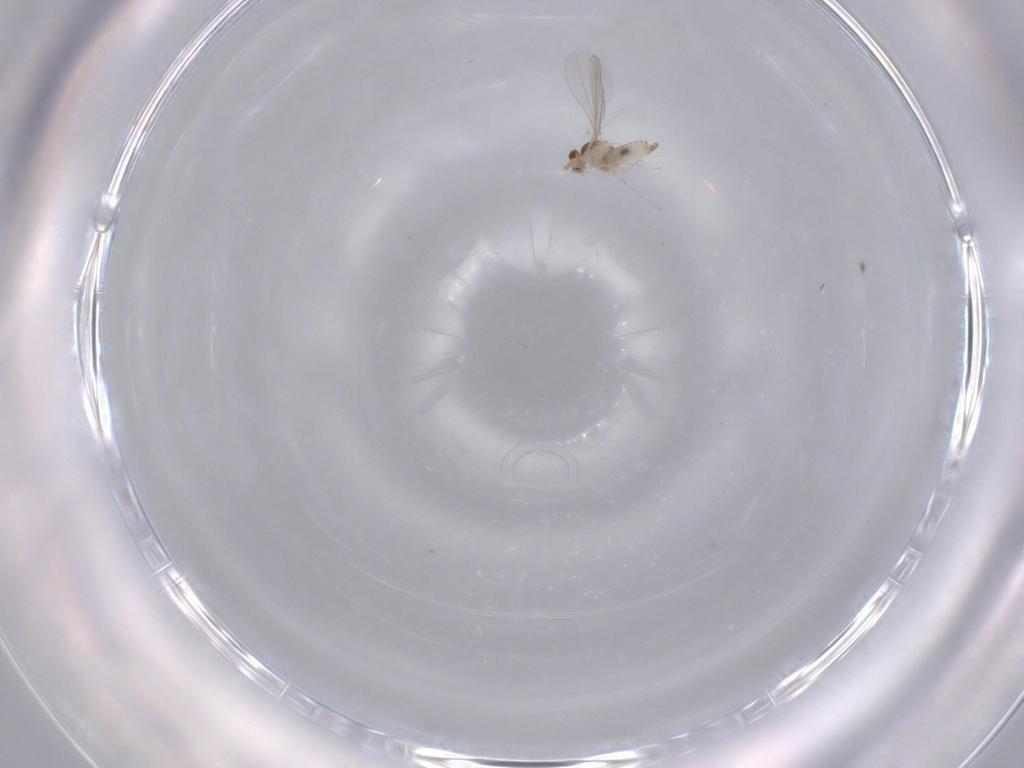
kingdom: Animalia
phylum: Arthropoda
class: Insecta
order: Diptera
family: Cecidomyiidae
